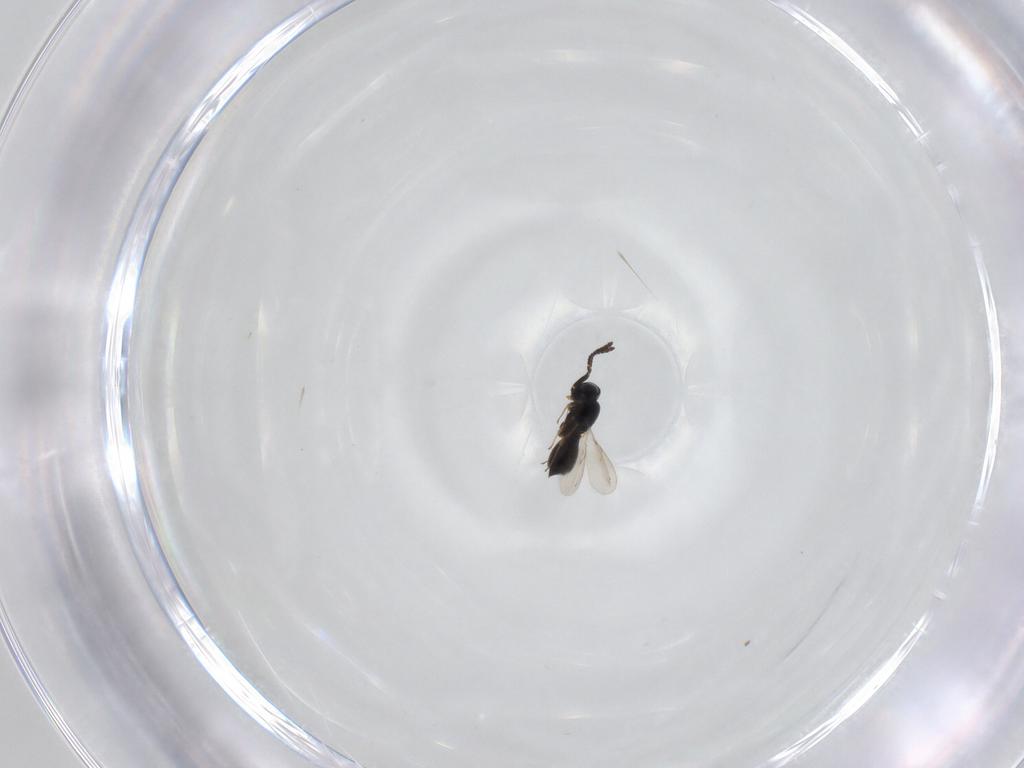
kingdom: Animalia
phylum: Arthropoda
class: Insecta
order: Hymenoptera
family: Scelionidae
